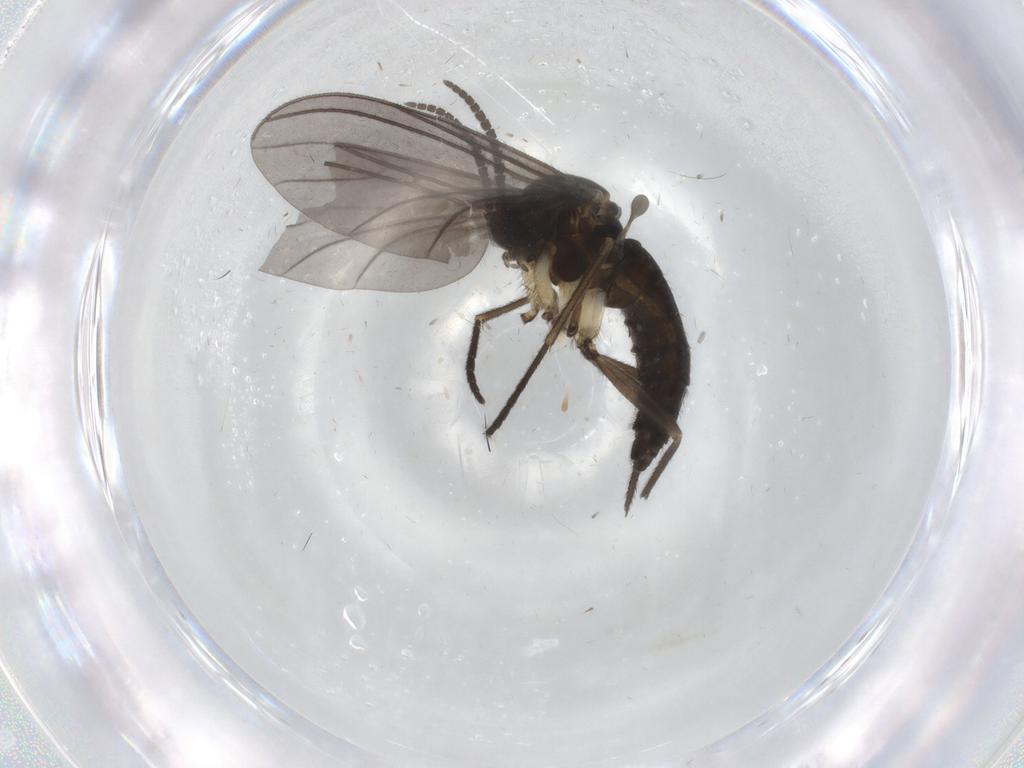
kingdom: Animalia
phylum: Arthropoda
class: Insecta
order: Diptera
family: Sciaridae
